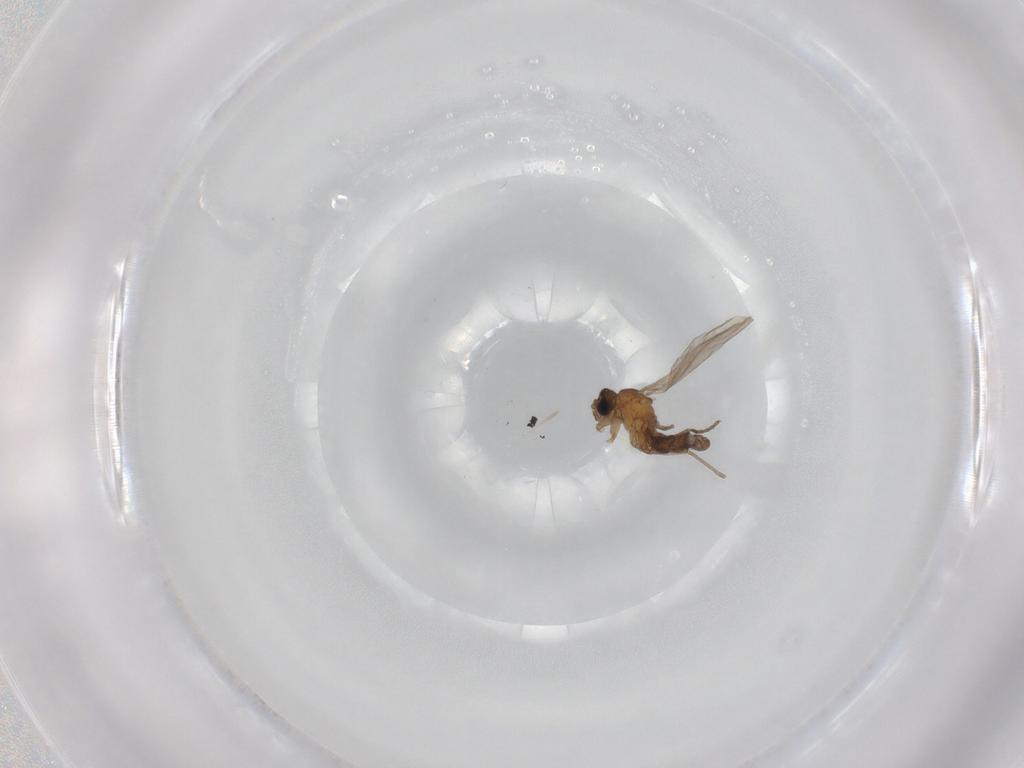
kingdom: Animalia
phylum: Arthropoda
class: Insecta
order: Diptera
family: Sciaridae
